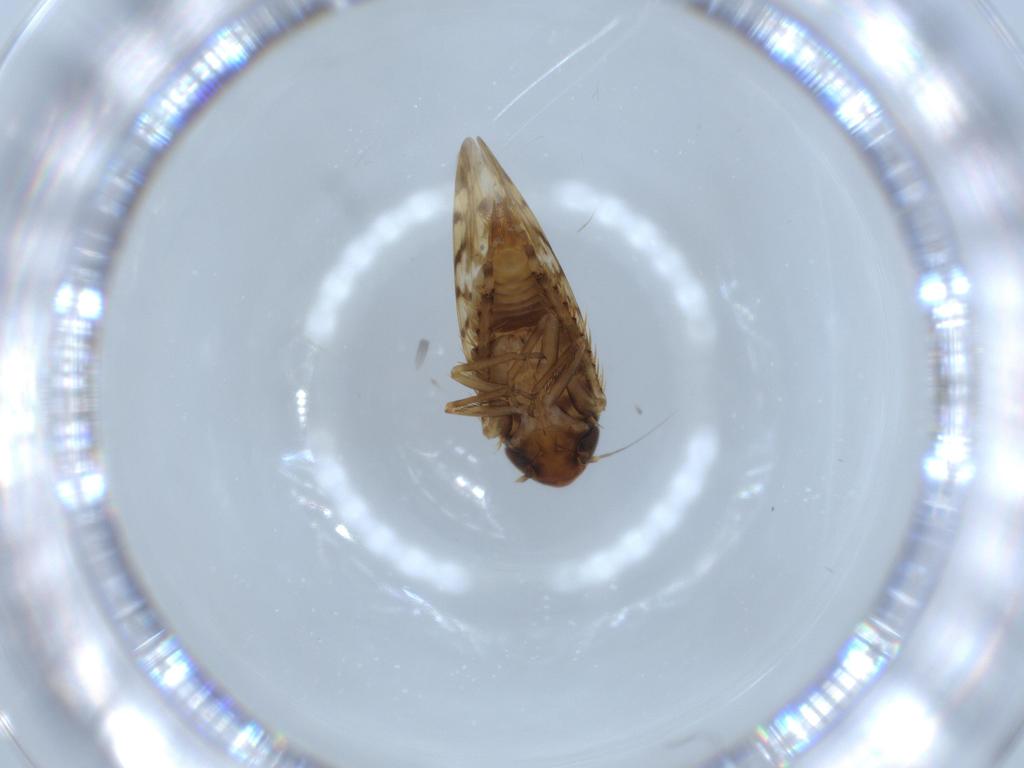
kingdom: Animalia
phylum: Arthropoda
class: Insecta
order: Hemiptera
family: Cicadellidae
